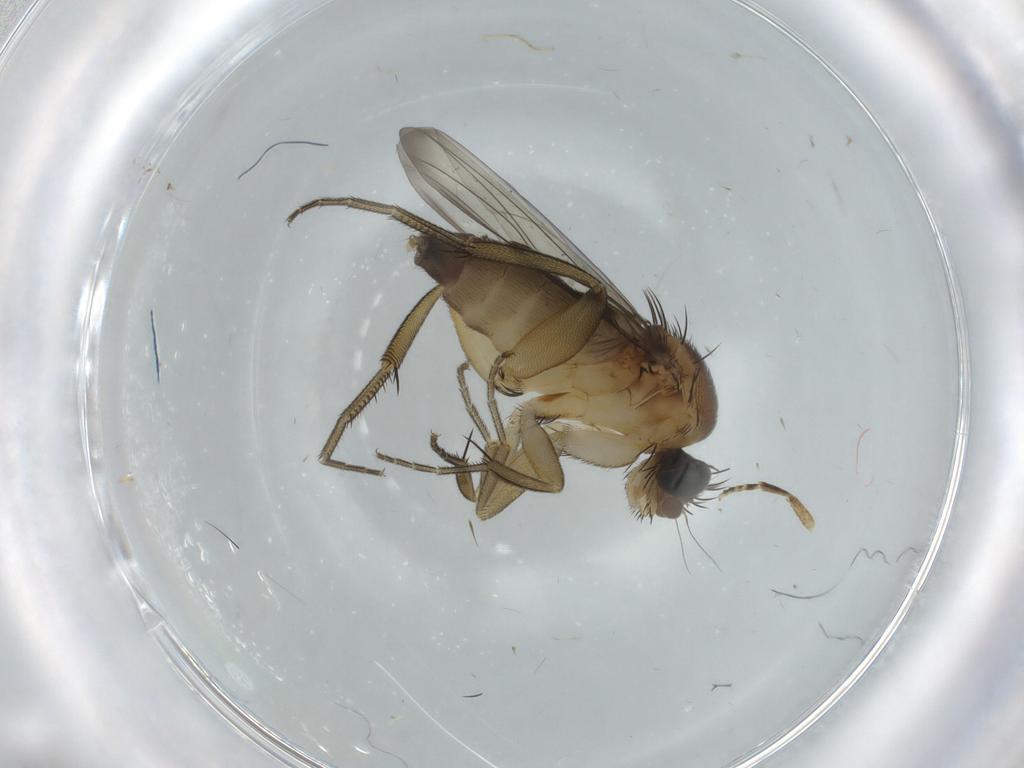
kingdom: Animalia
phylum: Arthropoda
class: Insecta
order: Diptera
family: Phoridae
